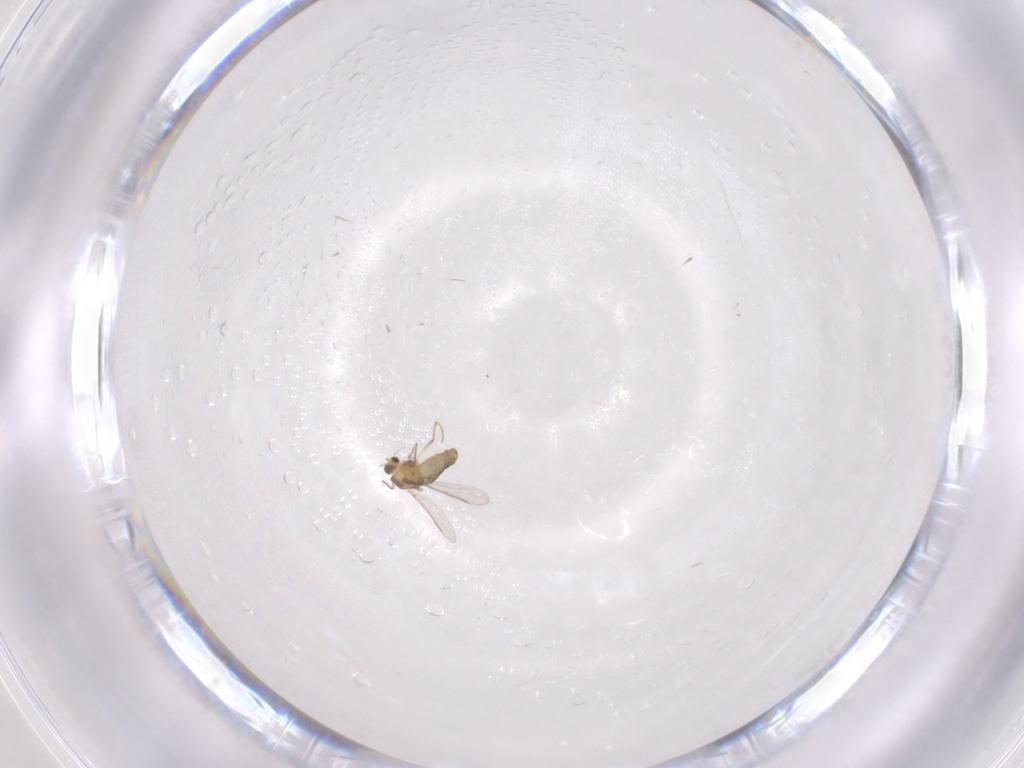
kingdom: Animalia
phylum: Arthropoda
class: Insecta
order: Diptera
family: Chironomidae
